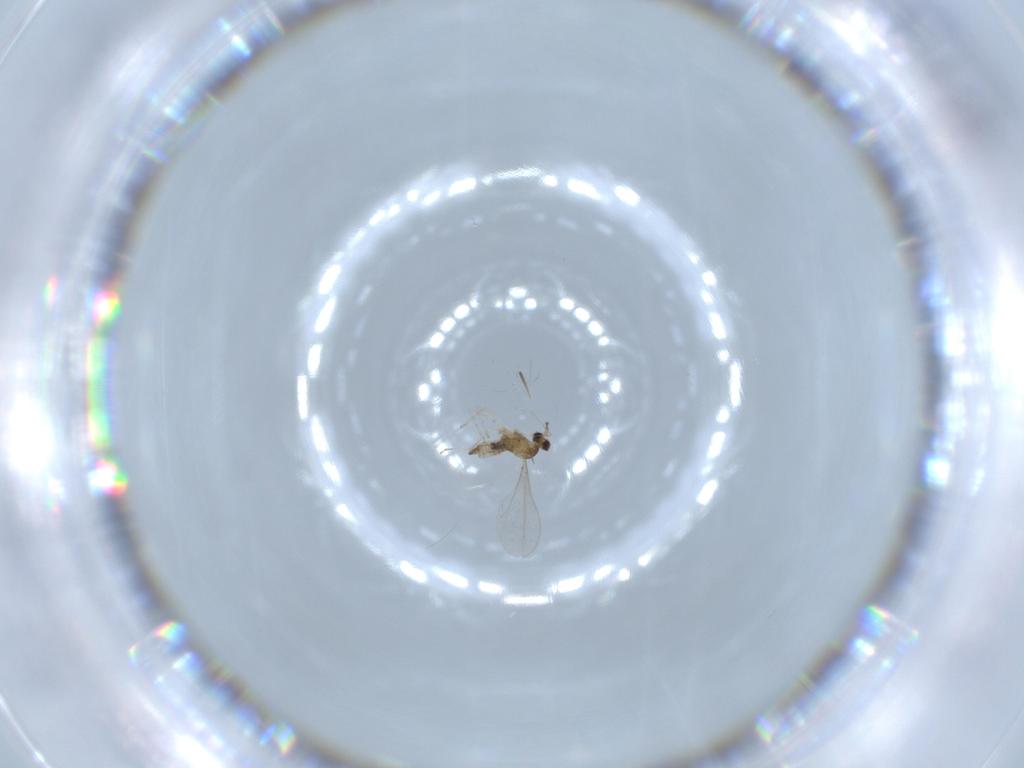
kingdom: Animalia
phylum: Arthropoda
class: Insecta
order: Diptera
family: Cecidomyiidae
